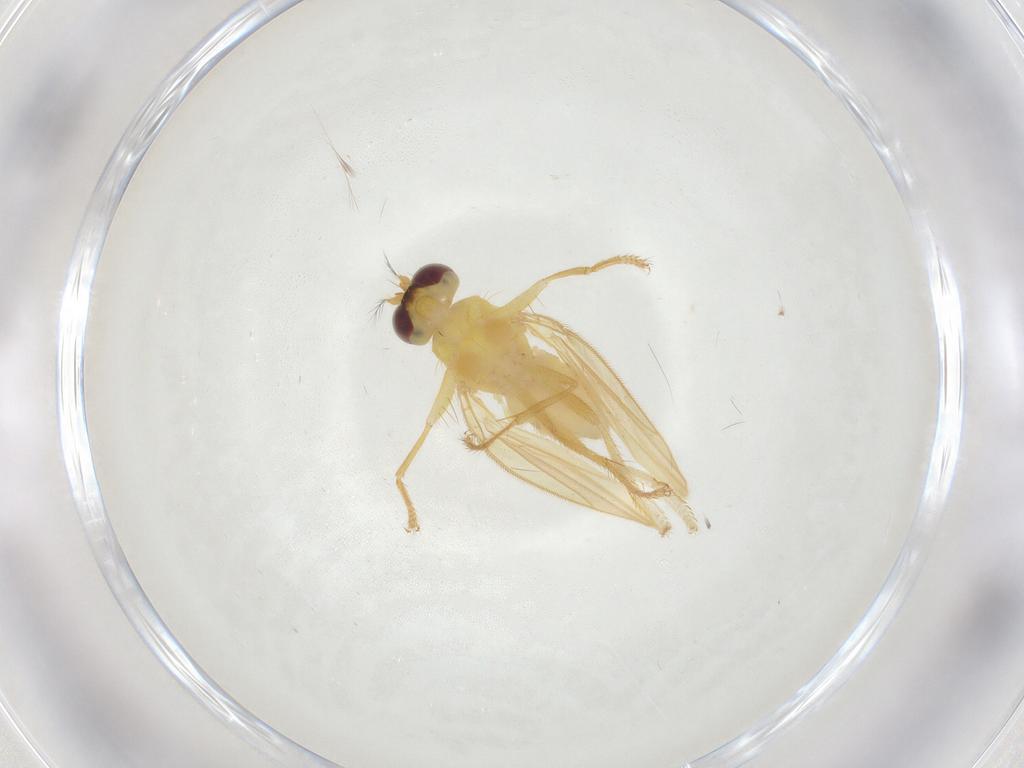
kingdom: Animalia
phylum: Arthropoda
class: Insecta
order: Diptera
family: Periscelididae
